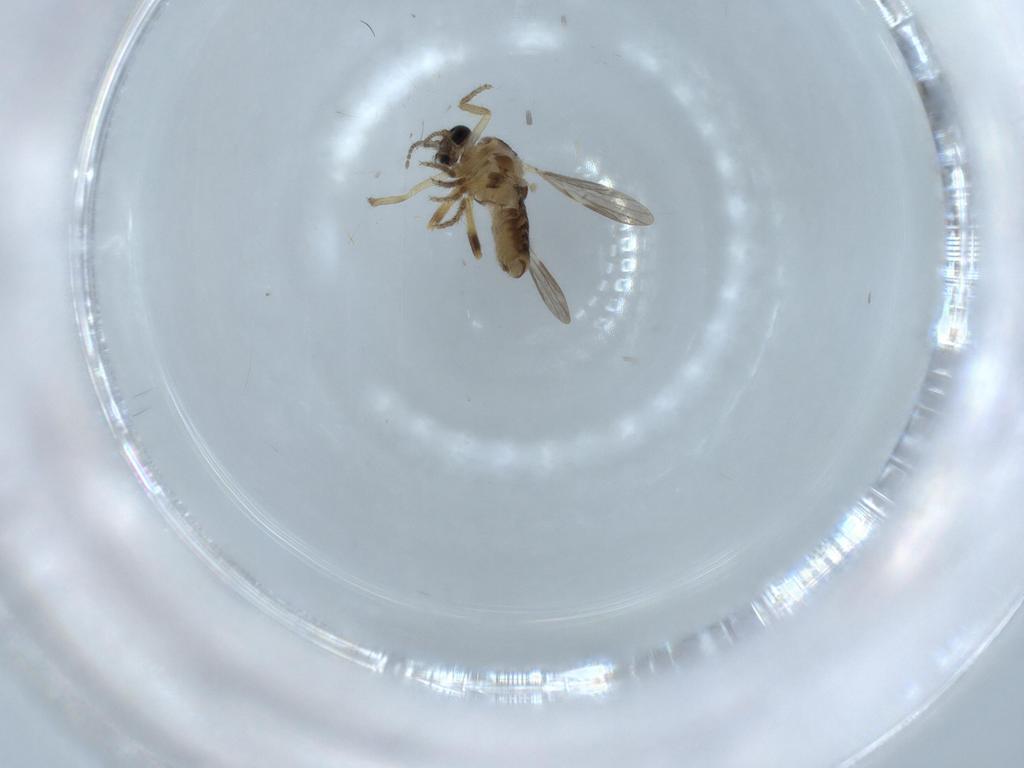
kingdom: Animalia
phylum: Arthropoda
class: Insecta
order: Diptera
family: Ceratopogonidae
